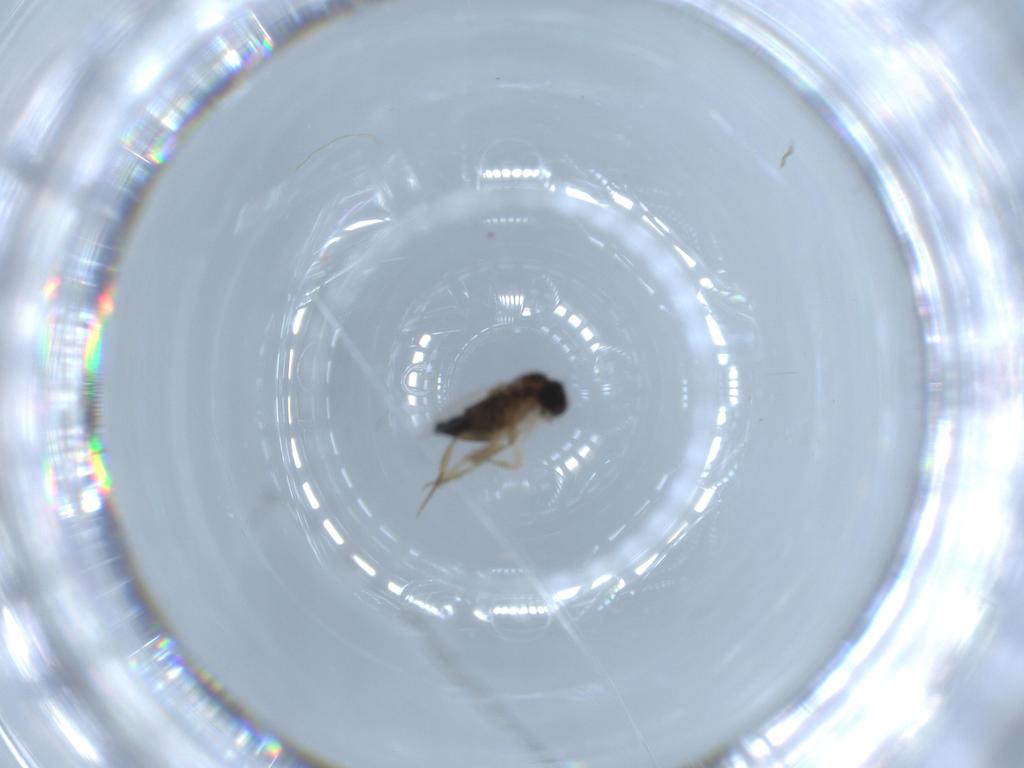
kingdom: Animalia
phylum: Arthropoda
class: Insecta
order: Diptera
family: Phoridae
